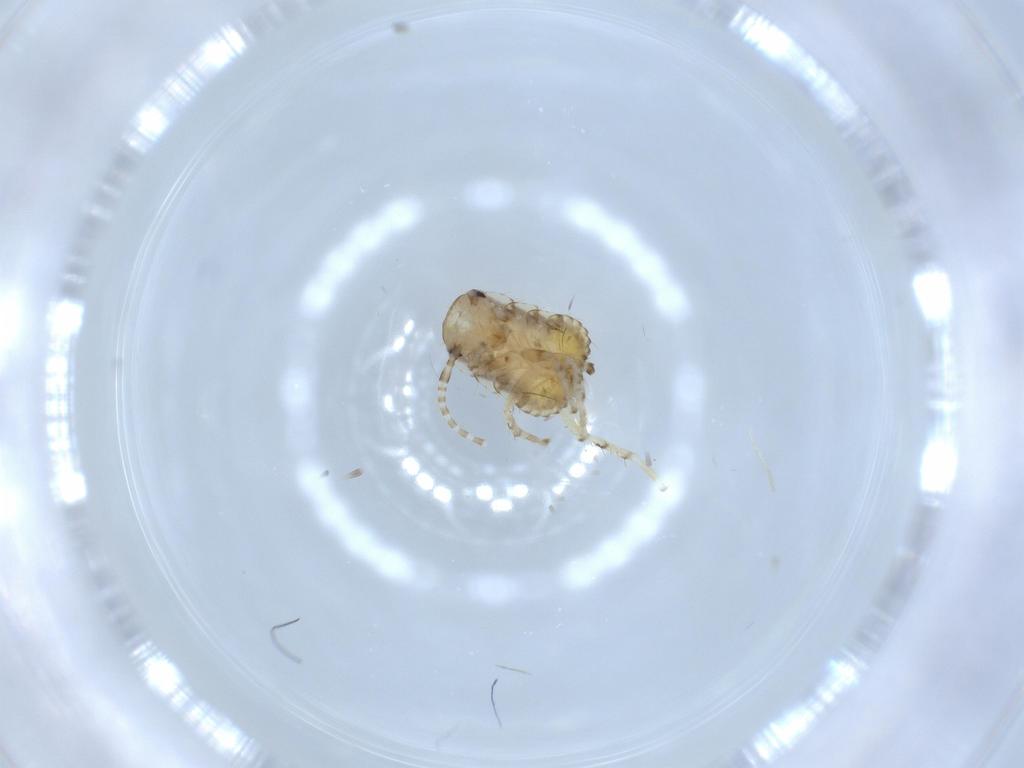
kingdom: Animalia
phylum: Arthropoda
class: Insecta
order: Blattodea
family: Ectobiidae
